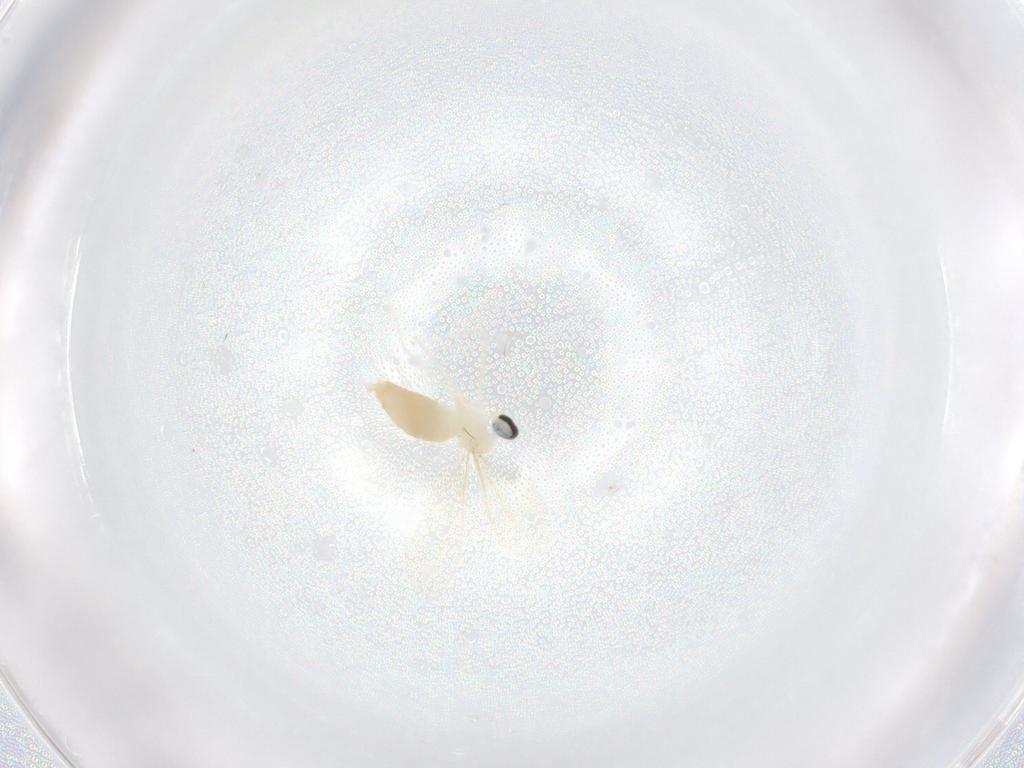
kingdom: Animalia
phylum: Arthropoda
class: Insecta
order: Diptera
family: Cecidomyiidae
